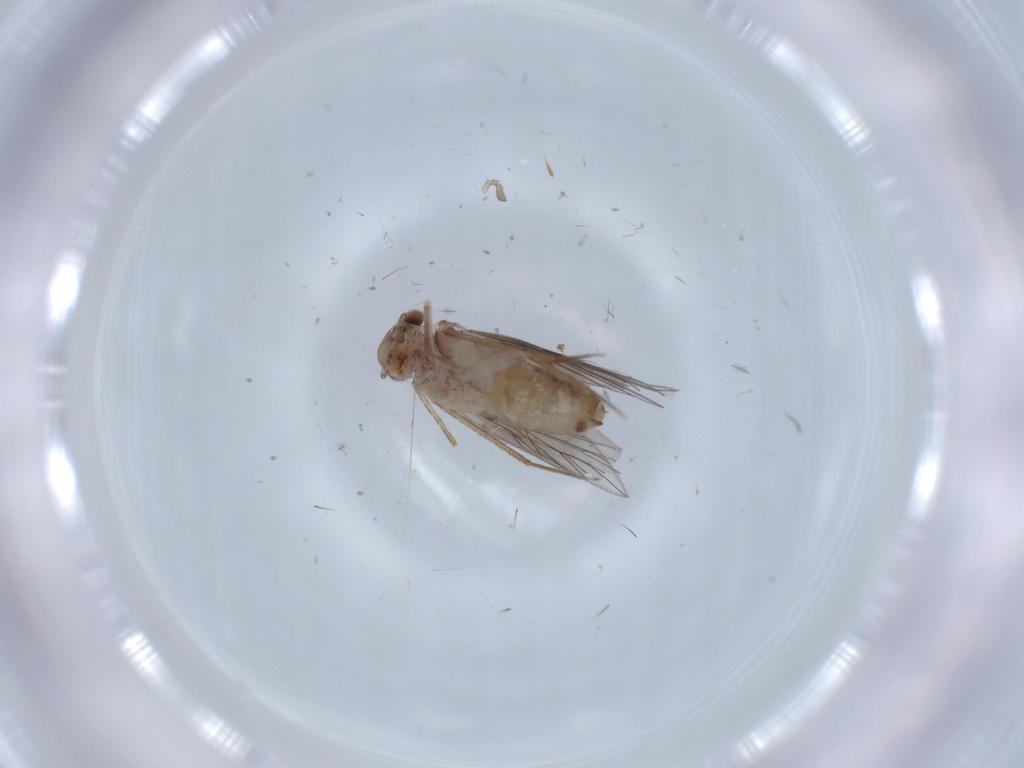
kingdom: Animalia
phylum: Arthropoda
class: Insecta
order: Psocodea
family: Lepidopsocidae
